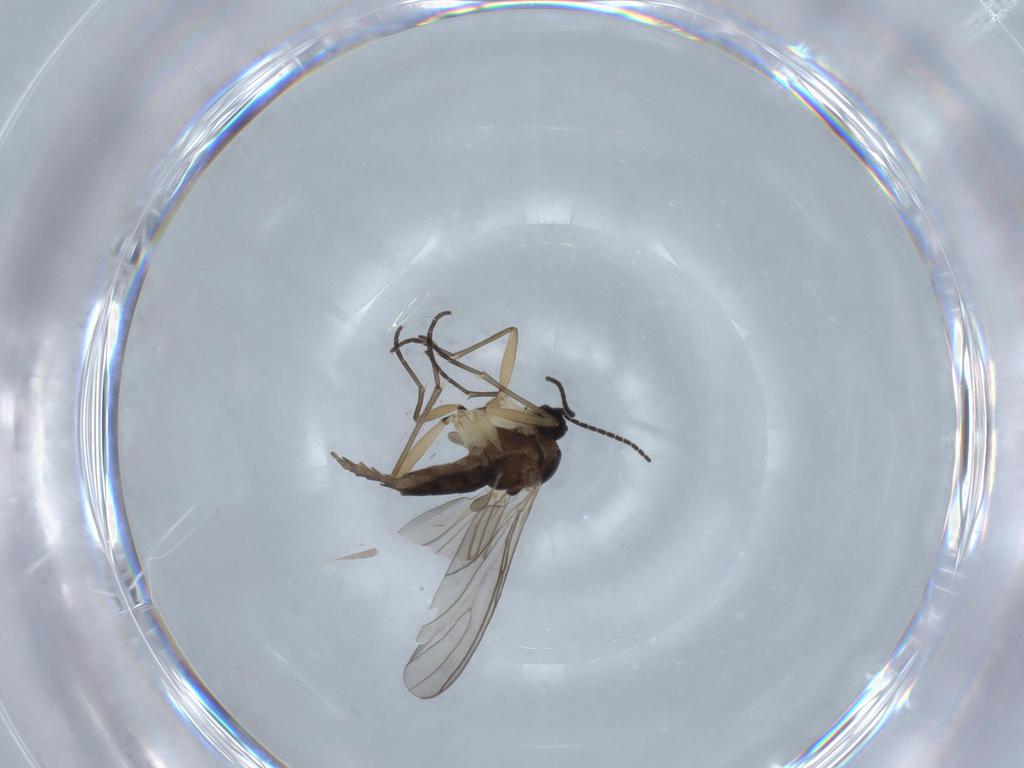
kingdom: Animalia
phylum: Arthropoda
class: Insecta
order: Diptera
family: Sciaridae
